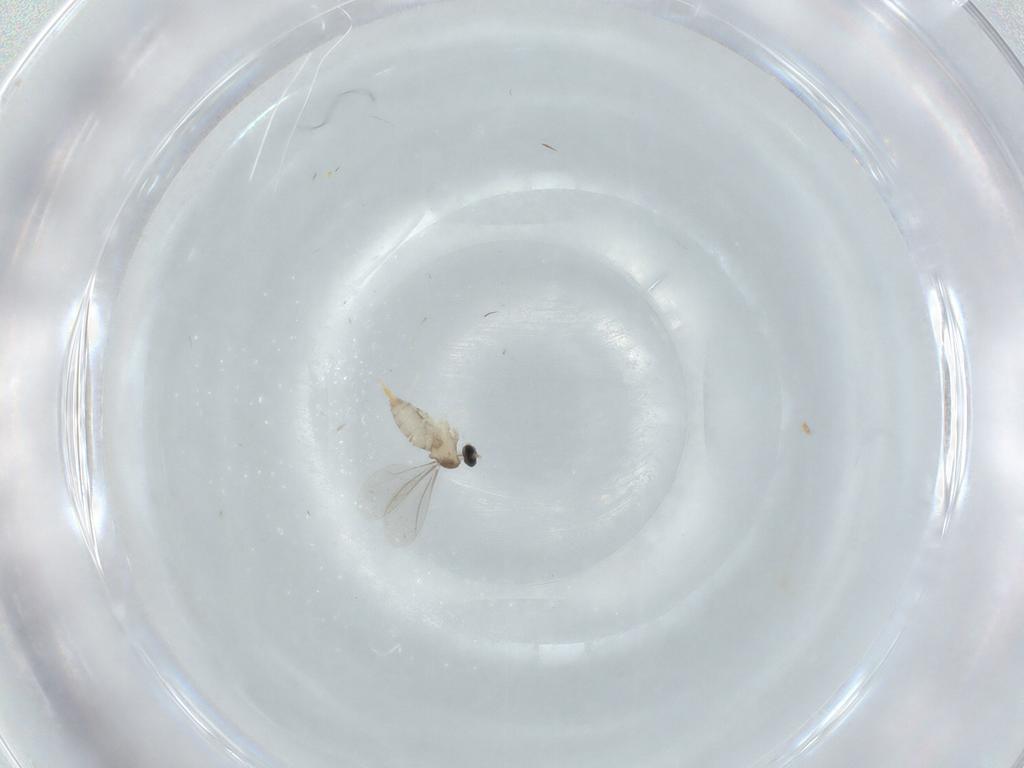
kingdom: Animalia
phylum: Arthropoda
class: Insecta
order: Diptera
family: Cecidomyiidae
